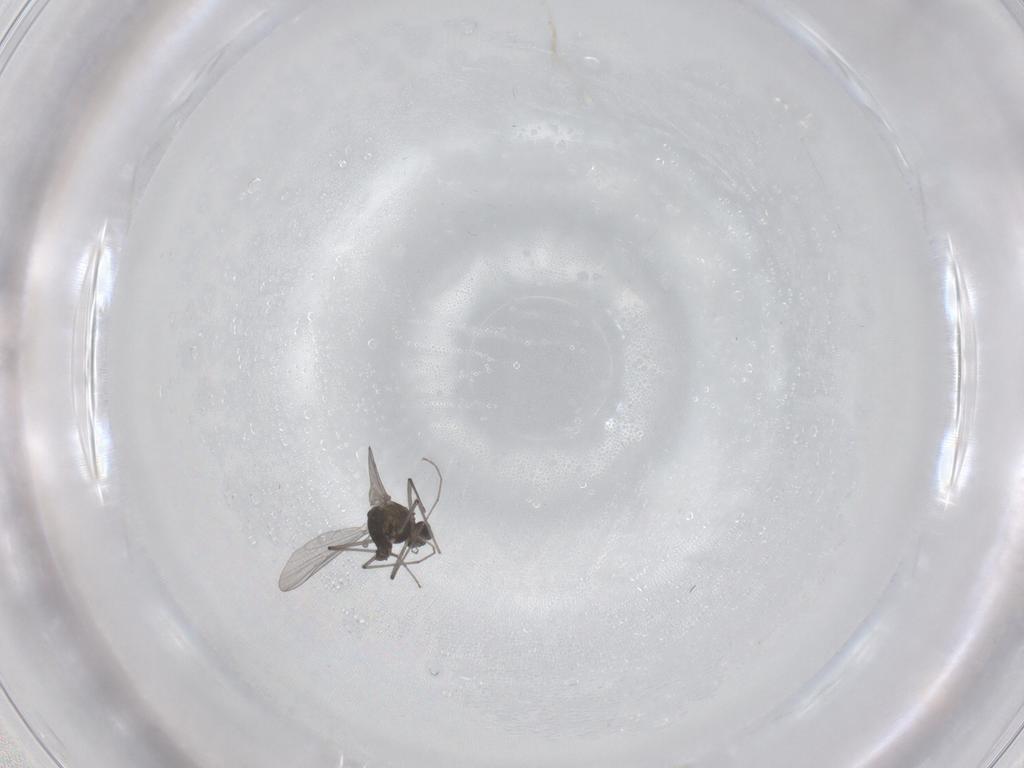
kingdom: Animalia
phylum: Arthropoda
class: Insecta
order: Diptera
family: Chironomidae
